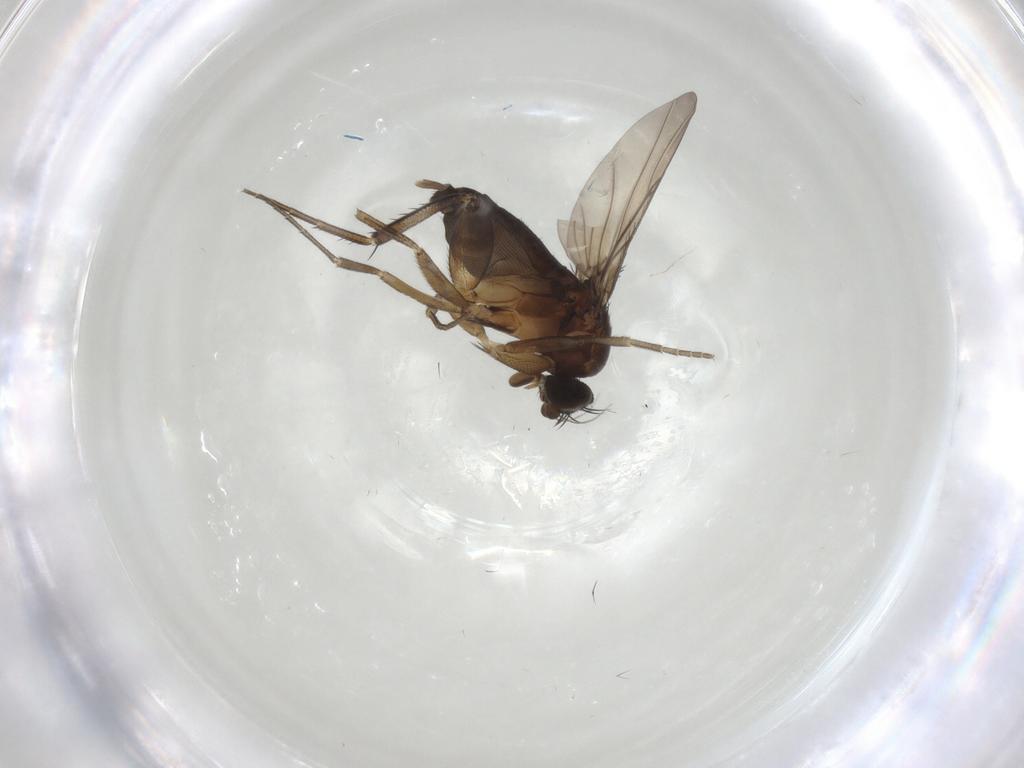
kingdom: Animalia
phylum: Arthropoda
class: Insecta
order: Diptera
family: Phoridae
